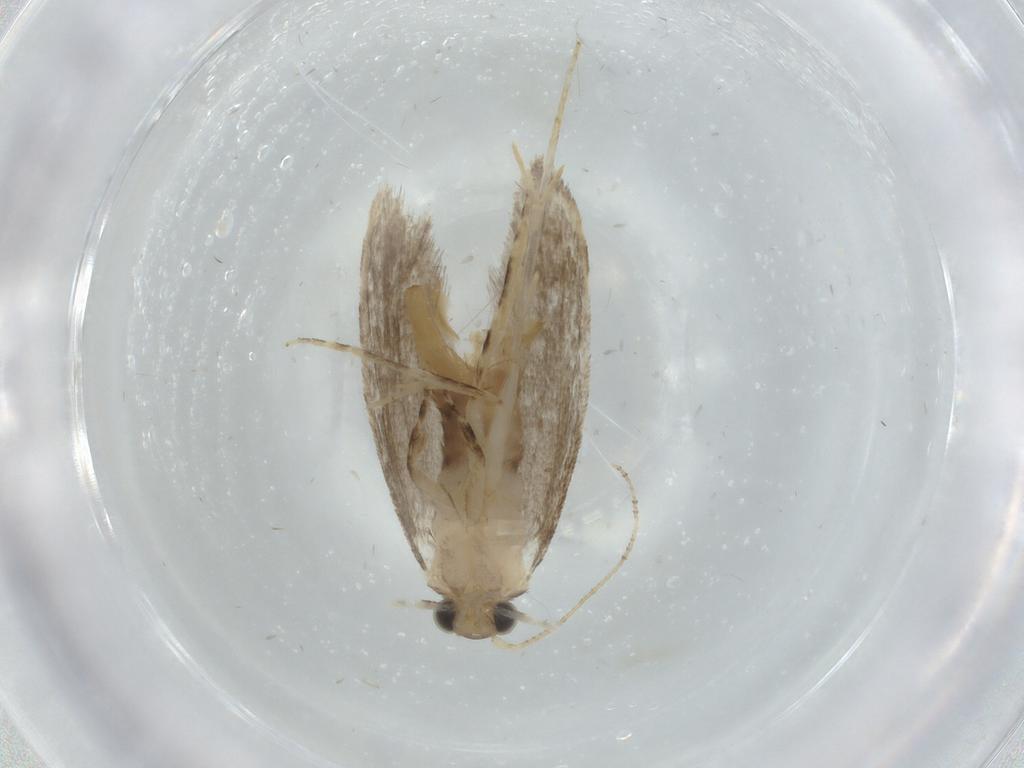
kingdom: Animalia
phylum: Arthropoda
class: Insecta
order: Lepidoptera
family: Tineidae
